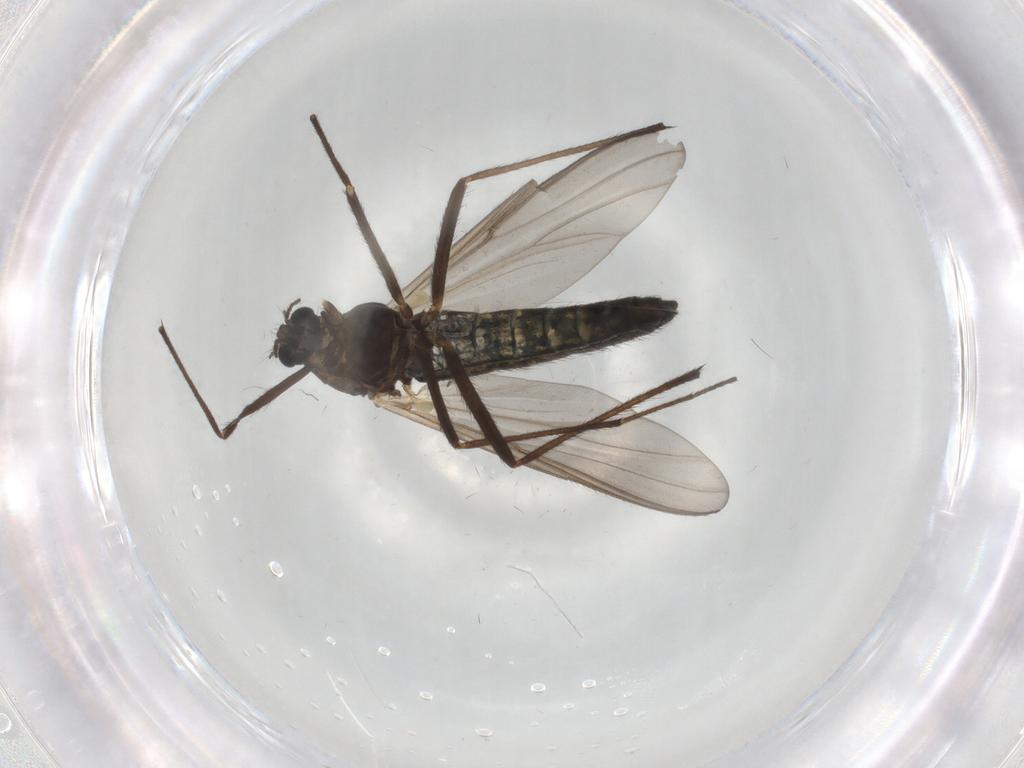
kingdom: Animalia
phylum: Arthropoda
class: Insecta
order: Diptera
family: Chironomidae
